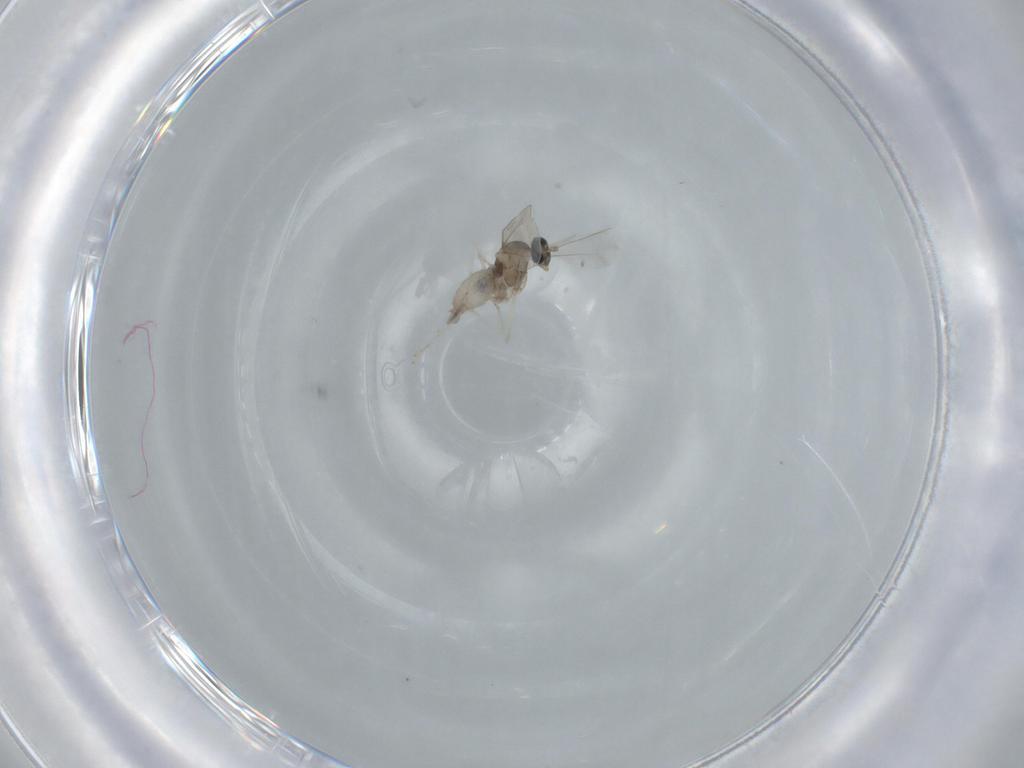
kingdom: Animalia
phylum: Arthropoda
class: Insecta
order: Diptera
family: Cecidomyiidae
